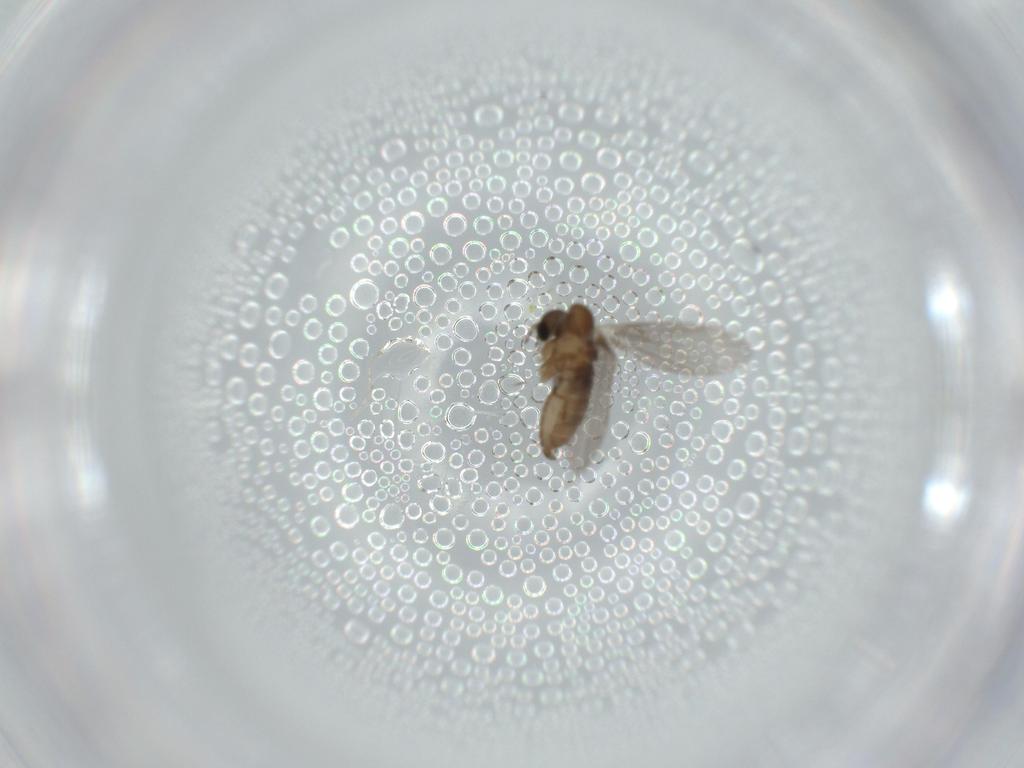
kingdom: Animalia
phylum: Arthropoda
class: Insecta
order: Diptera
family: Psychodidae
